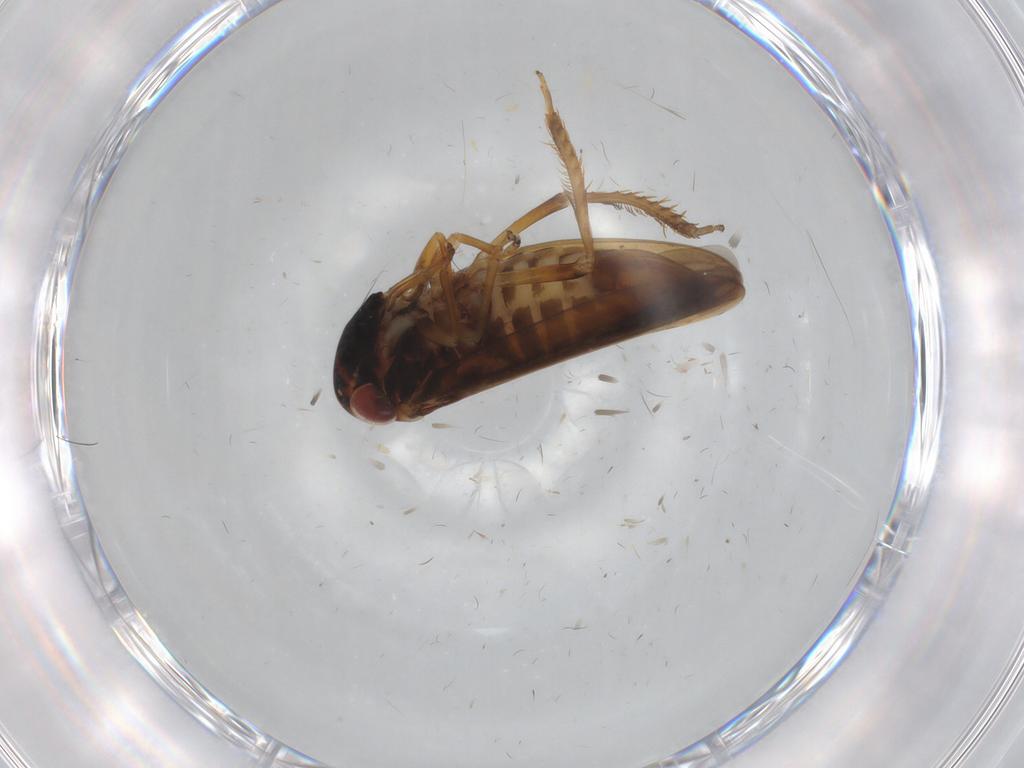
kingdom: Animalia
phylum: Arthropoda
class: Insecta
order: Hemiptera
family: Cicadellidae
